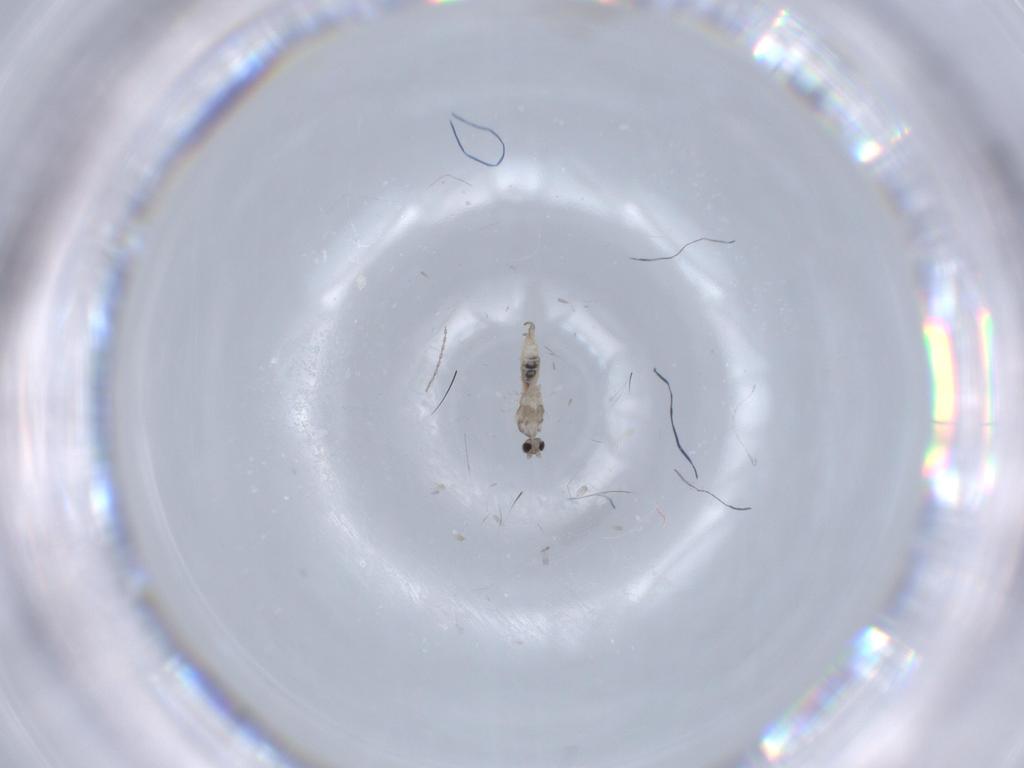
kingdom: Animalia
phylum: Arthropoda
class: Insecta
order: Diptera
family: Cecidomyiidae
